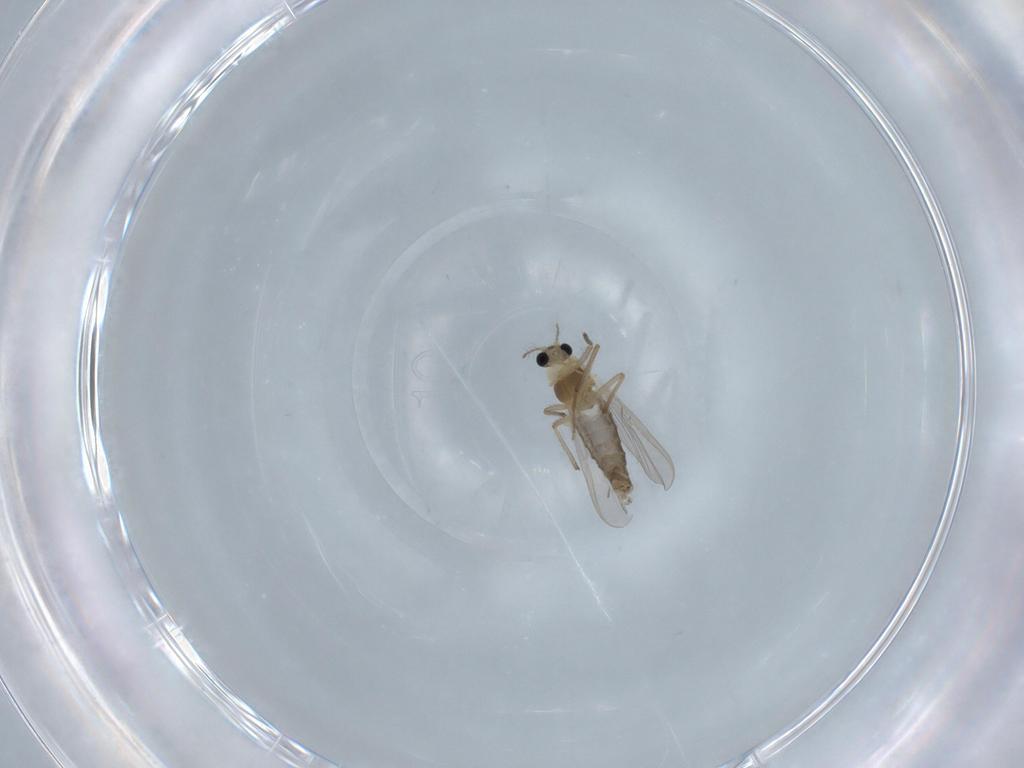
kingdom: Animalia
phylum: Arthropoda
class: Insecta
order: Diptera
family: Chironomidae
